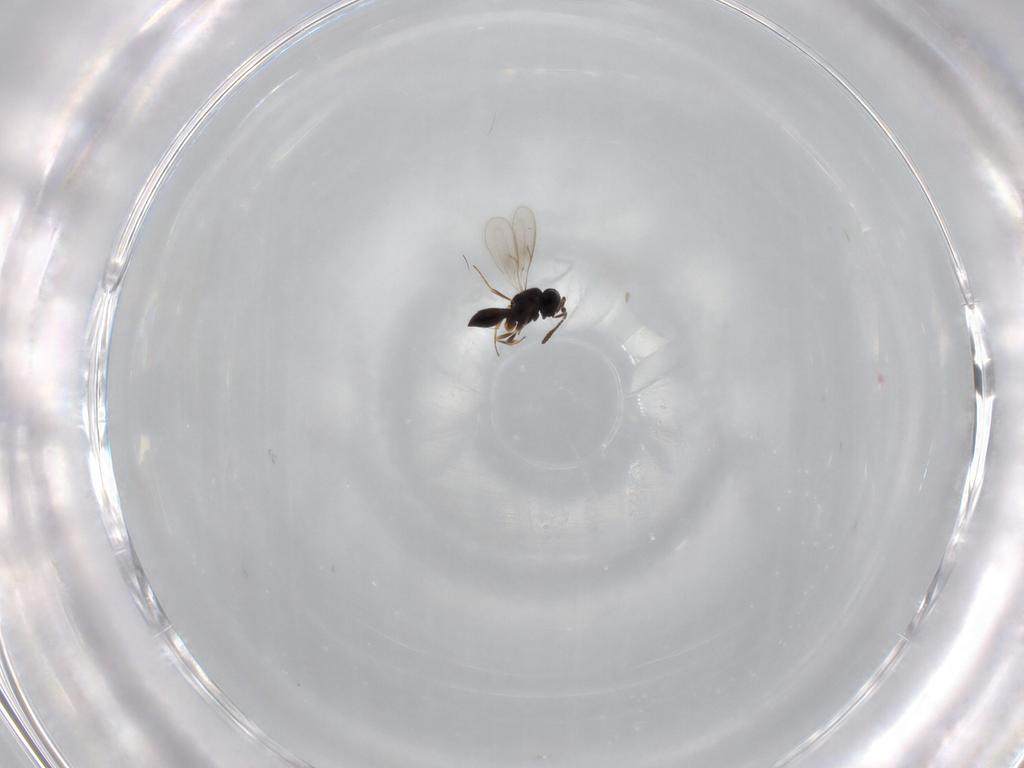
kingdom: Animalia
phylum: Arthropoda
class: Insecta
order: Hymenoptera
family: Scelionidae
